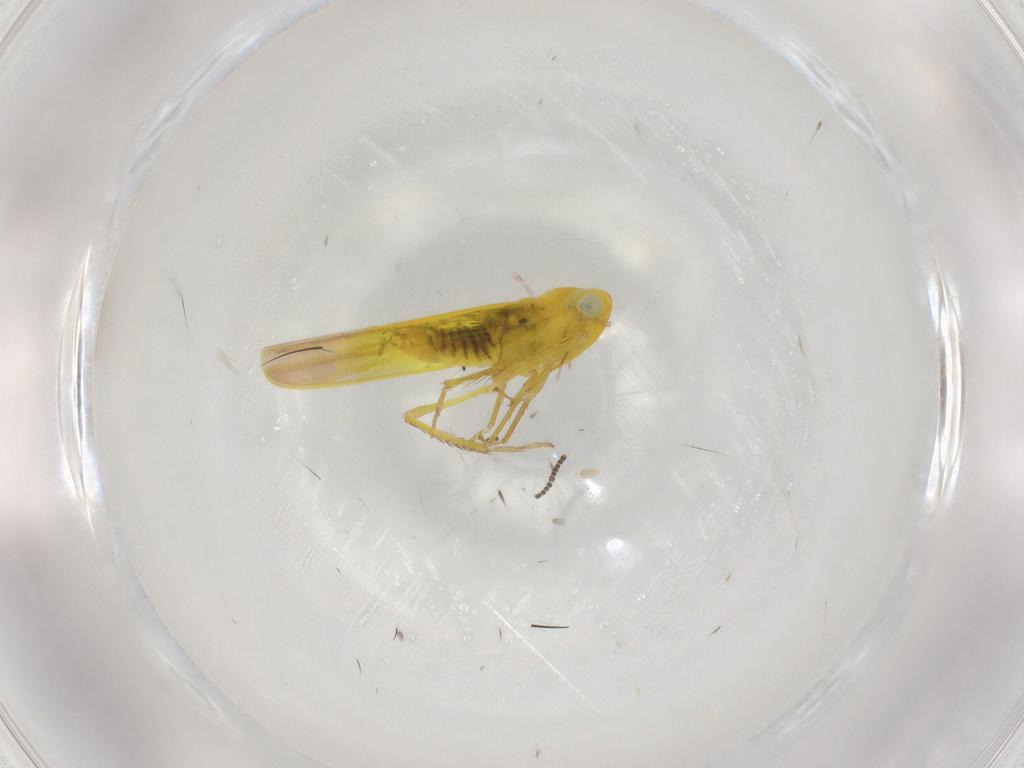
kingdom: Animalia
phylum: Arthropoda
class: Insecta
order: Hemiptera
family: Cicadellidae
